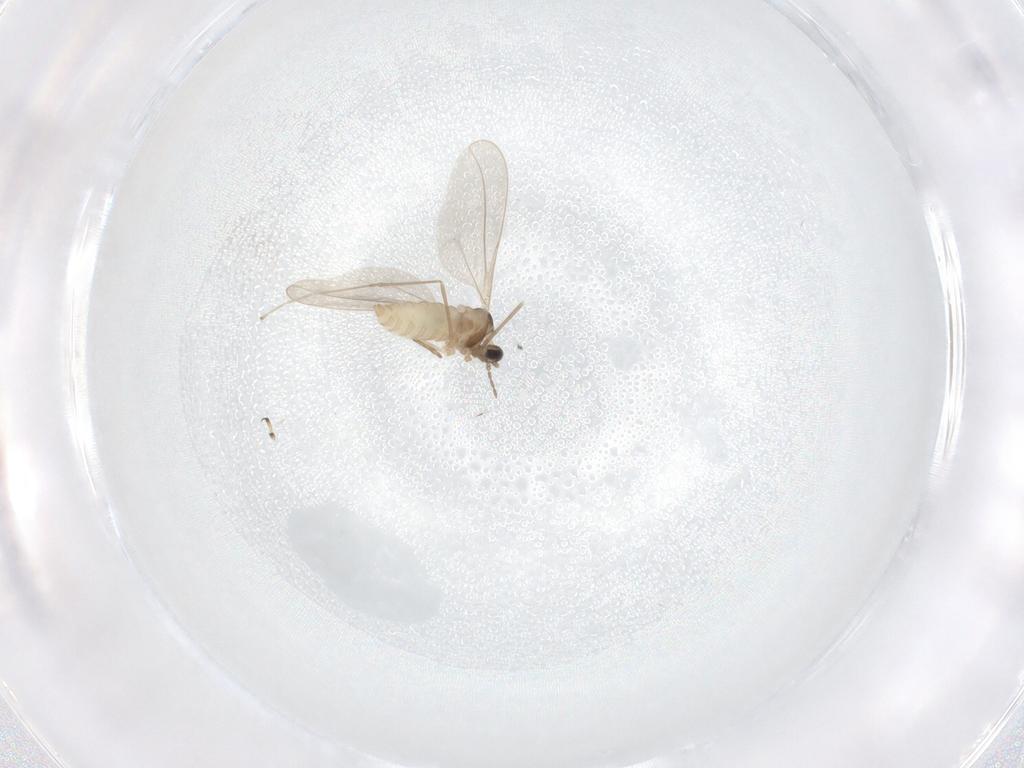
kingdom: Animalia
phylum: Arthropoda
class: Insecta
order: Diptera
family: Cecidomyiidae
